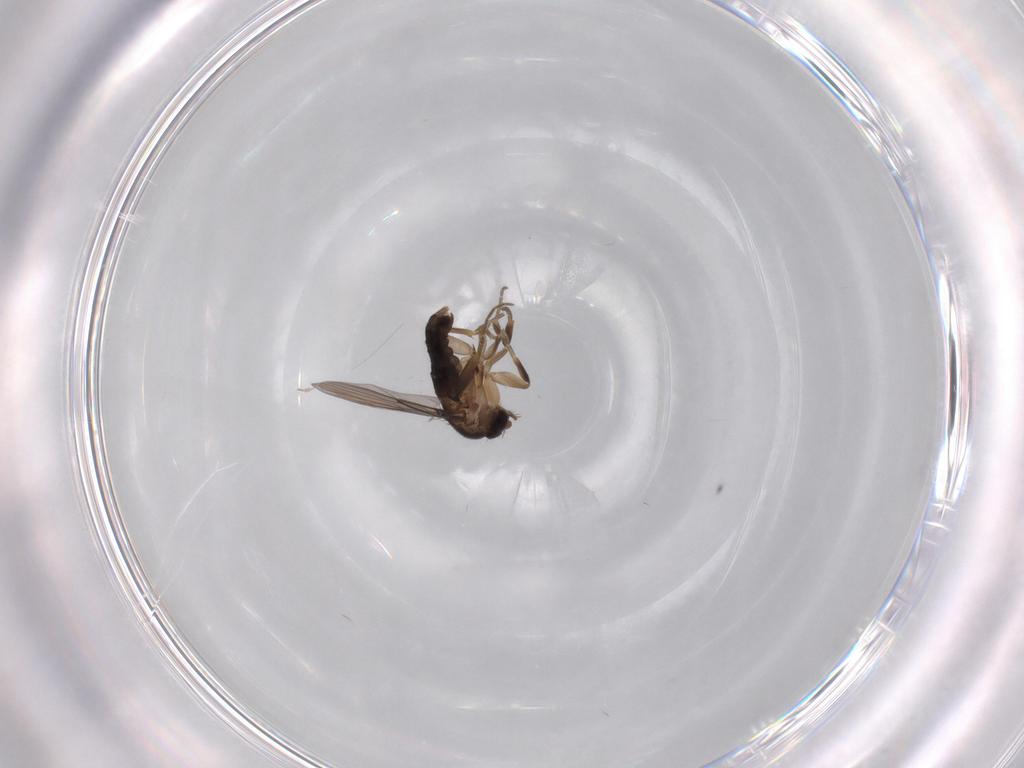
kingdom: Animalia
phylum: Arthropoda
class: Insecta
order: Diptera
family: Phoridae
